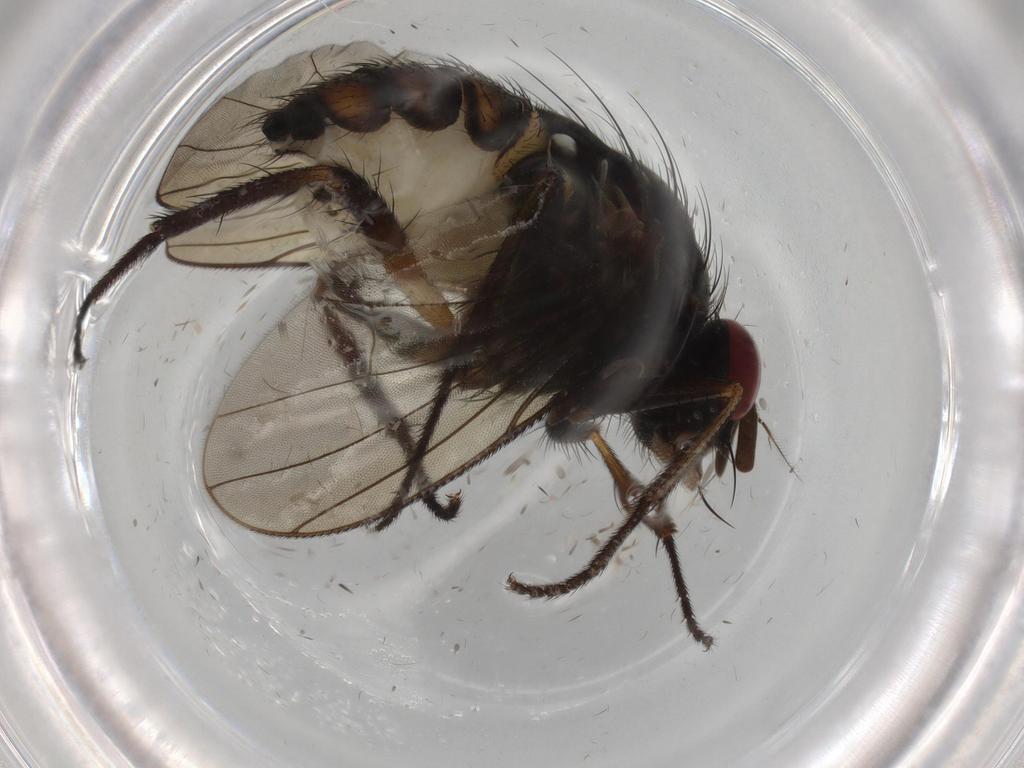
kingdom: Animalia
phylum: Arthropoda
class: Insecta
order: Diptera
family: Anthomyiidae
